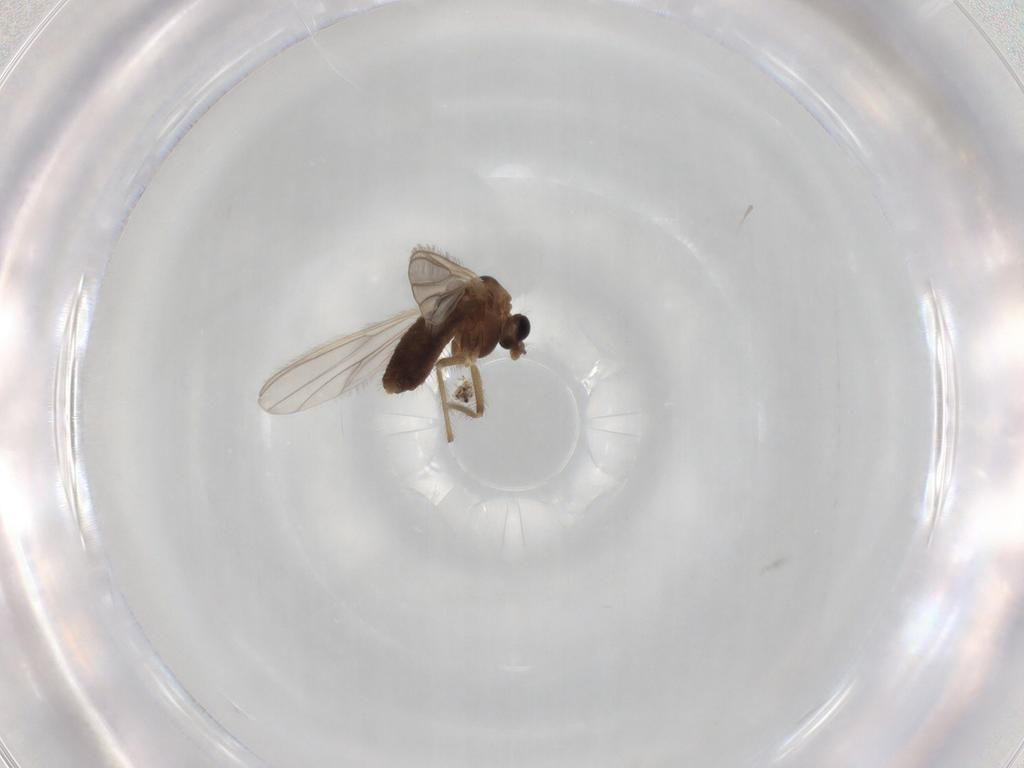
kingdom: Animalia
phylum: Arthropoda
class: Insecta
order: Diptera
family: Chironomidae
